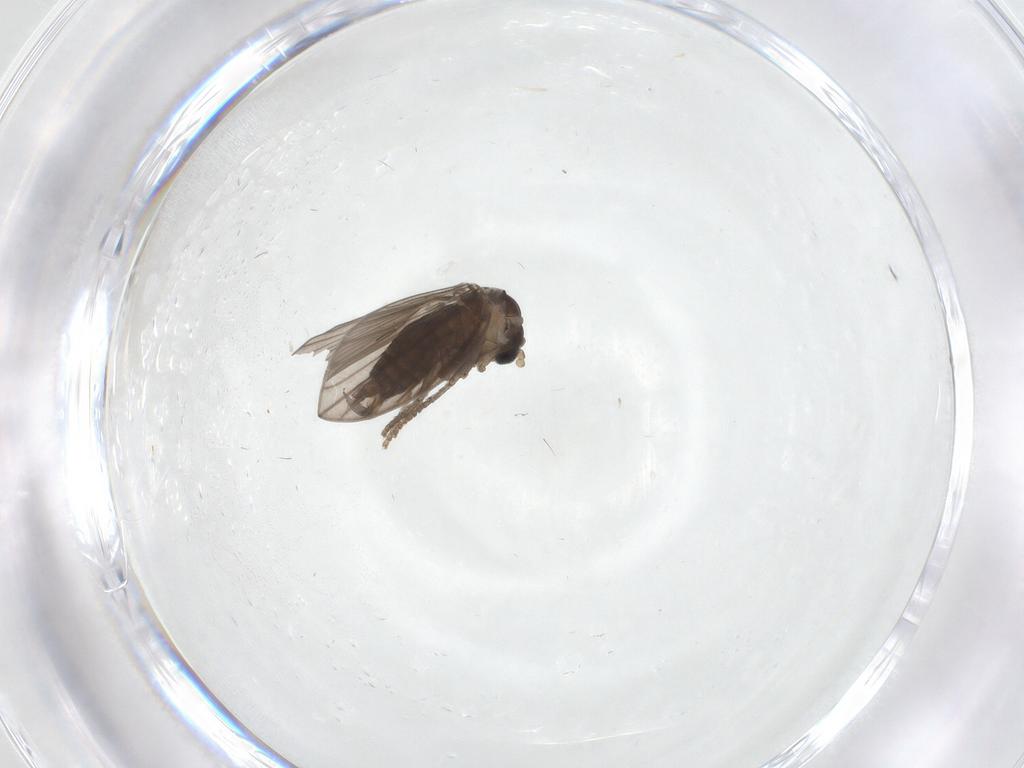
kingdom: Animalia
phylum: Arthropoda
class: Insecta
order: Diptera
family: Psychodidae
